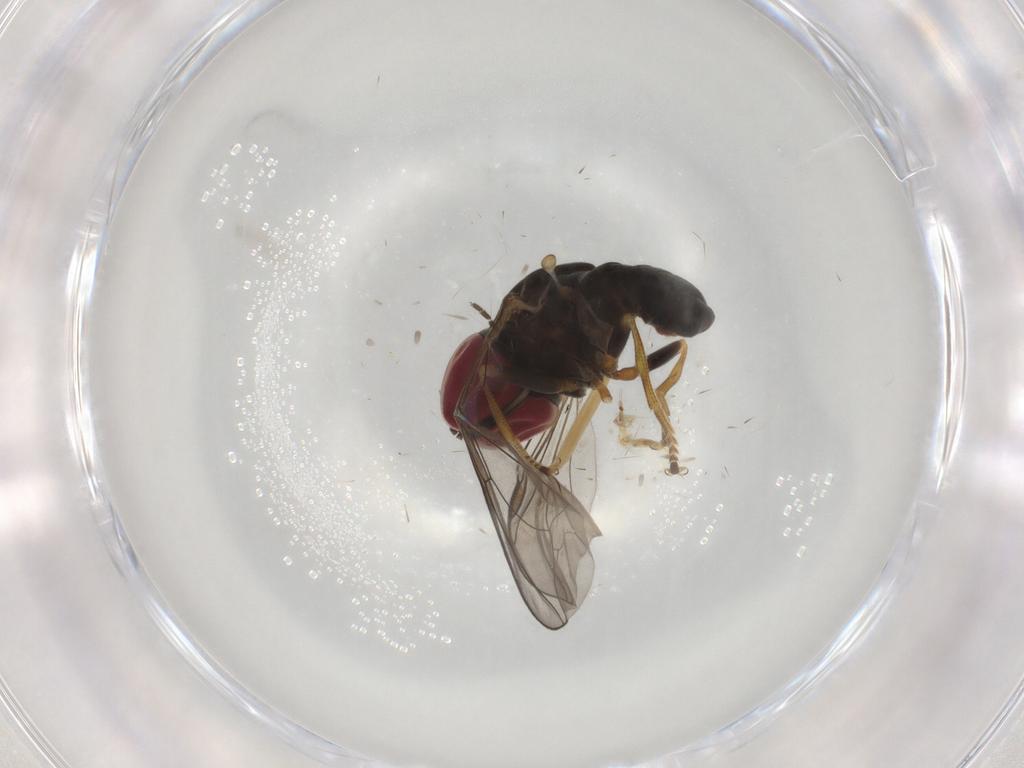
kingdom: Animalia
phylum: Arthropoda
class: Insecta
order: Diptera
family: Pipunculidae
